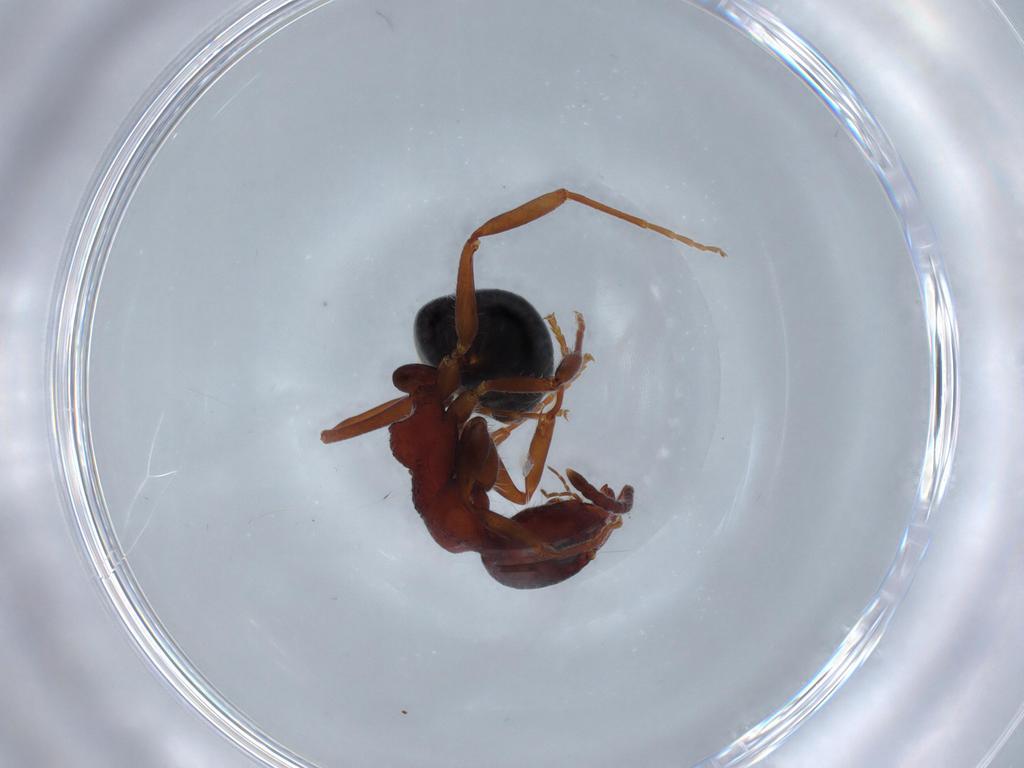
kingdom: Animalia
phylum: Arthropoda
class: Insecta
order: Hymenoptera
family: Formicidae
